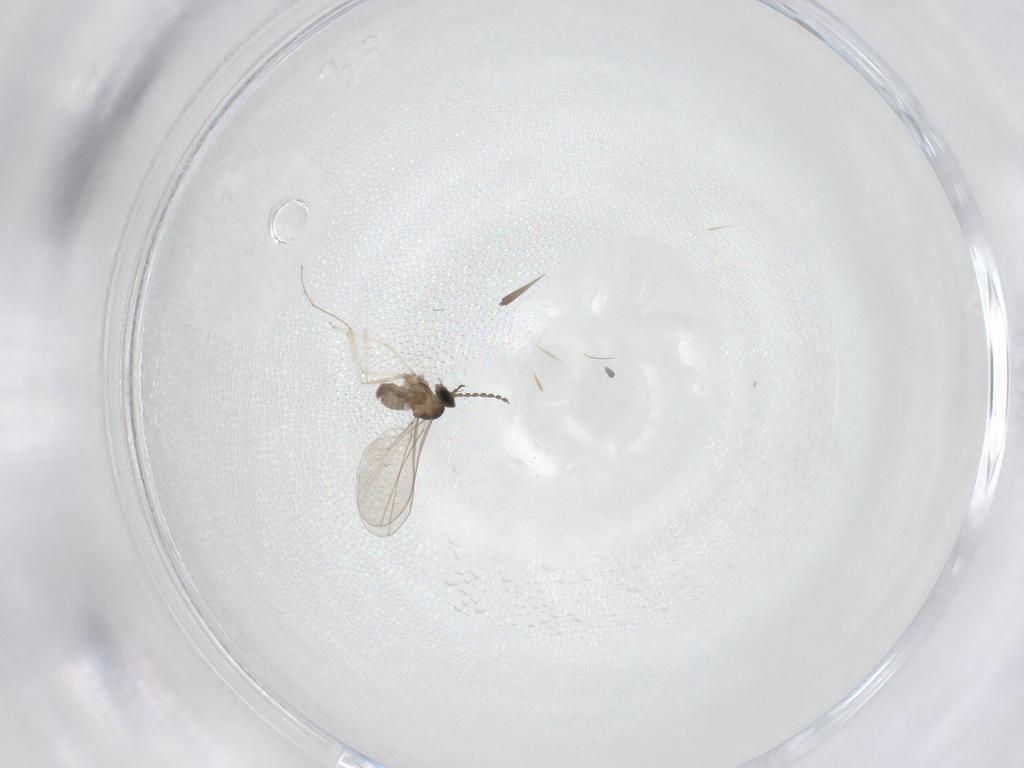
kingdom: Animalia
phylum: Arthropoda
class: Insecta
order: Diptera
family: Cecidomyiidae
